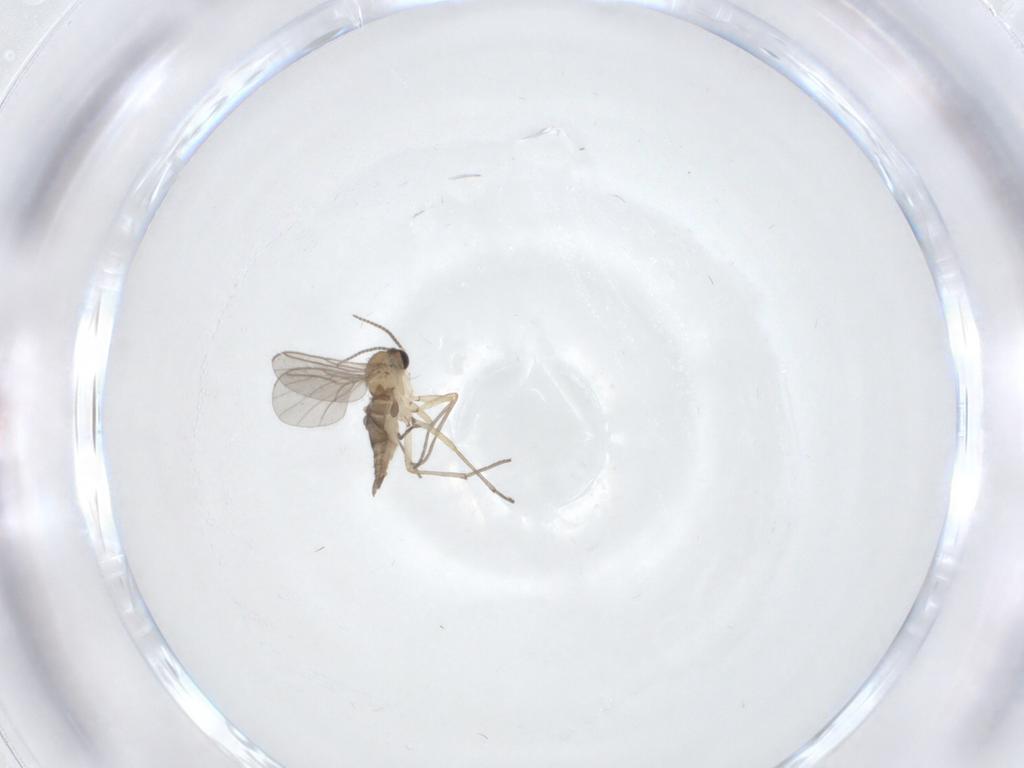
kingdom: Animalia
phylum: Arthropoda
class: Insecta
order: Diptera
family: Sciaridae
